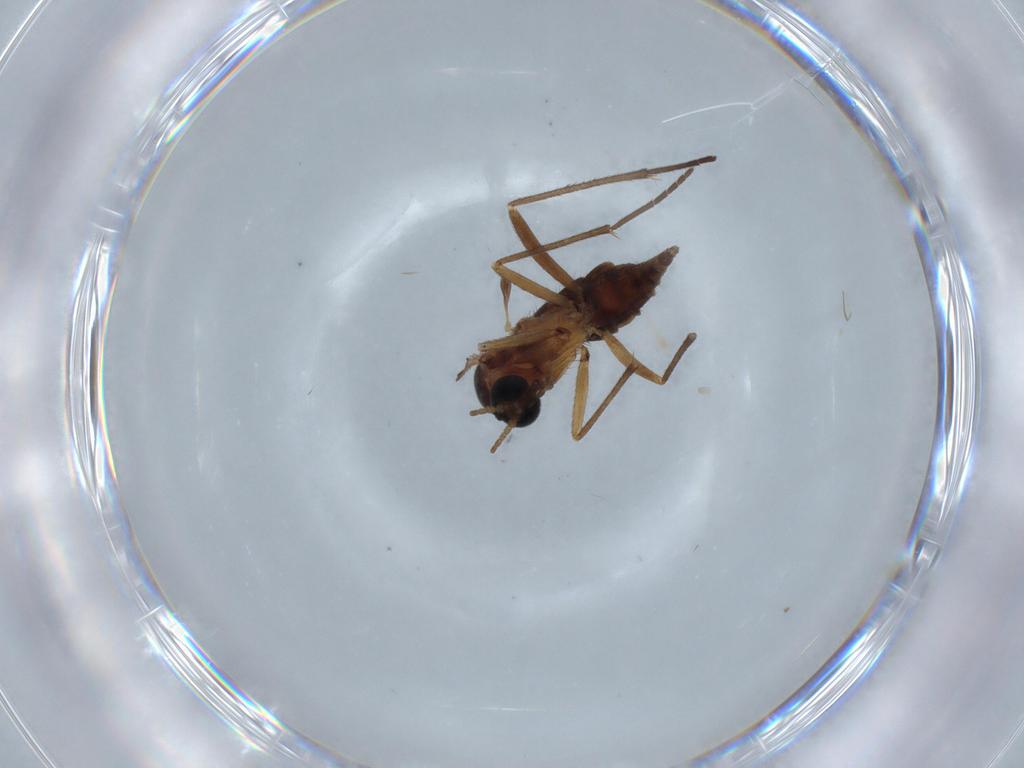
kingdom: Animalia
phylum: Arthropoda
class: Insecta
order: Diptera
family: Sciaridae
